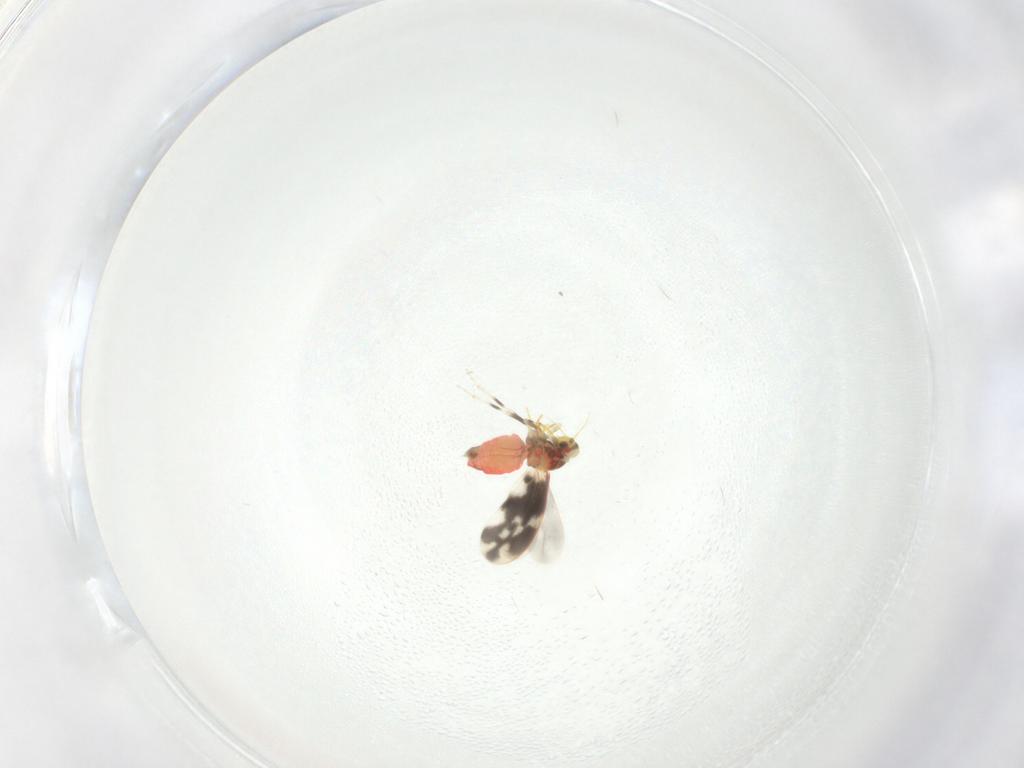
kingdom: Animalia
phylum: Arthropoda
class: Insecta
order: Hemiptera
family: Aleyrodidae
